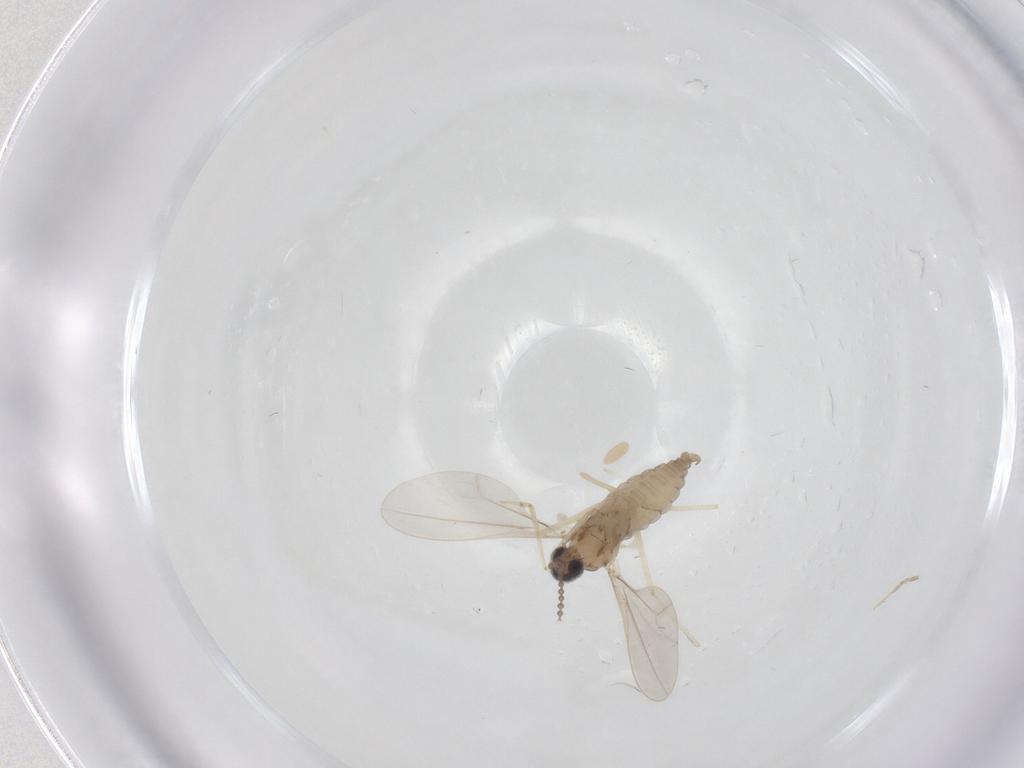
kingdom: Animalia
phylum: Arthropoda
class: Insecta
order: Diptera
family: Cecidomyiidae
